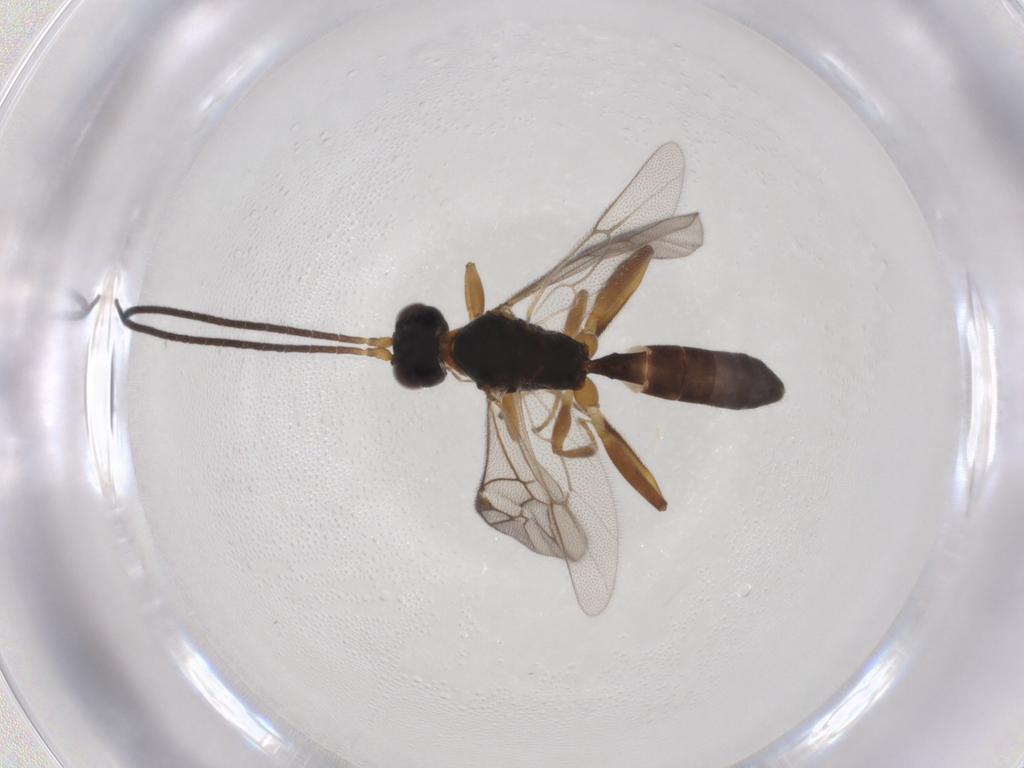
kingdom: Animalia
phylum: Arthropoda
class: Insecta
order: Hymenoptera
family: Ichneumonidae
